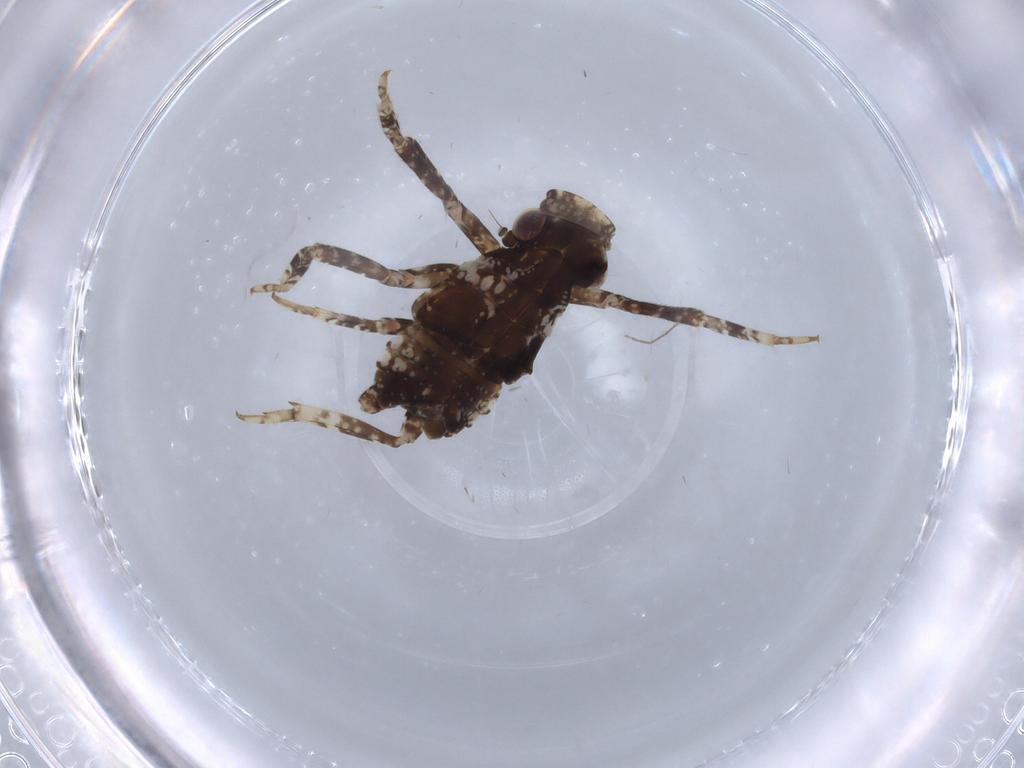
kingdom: Animalia
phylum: Arthropoda
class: Insecta
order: Hemiptera
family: Fulgoridae
